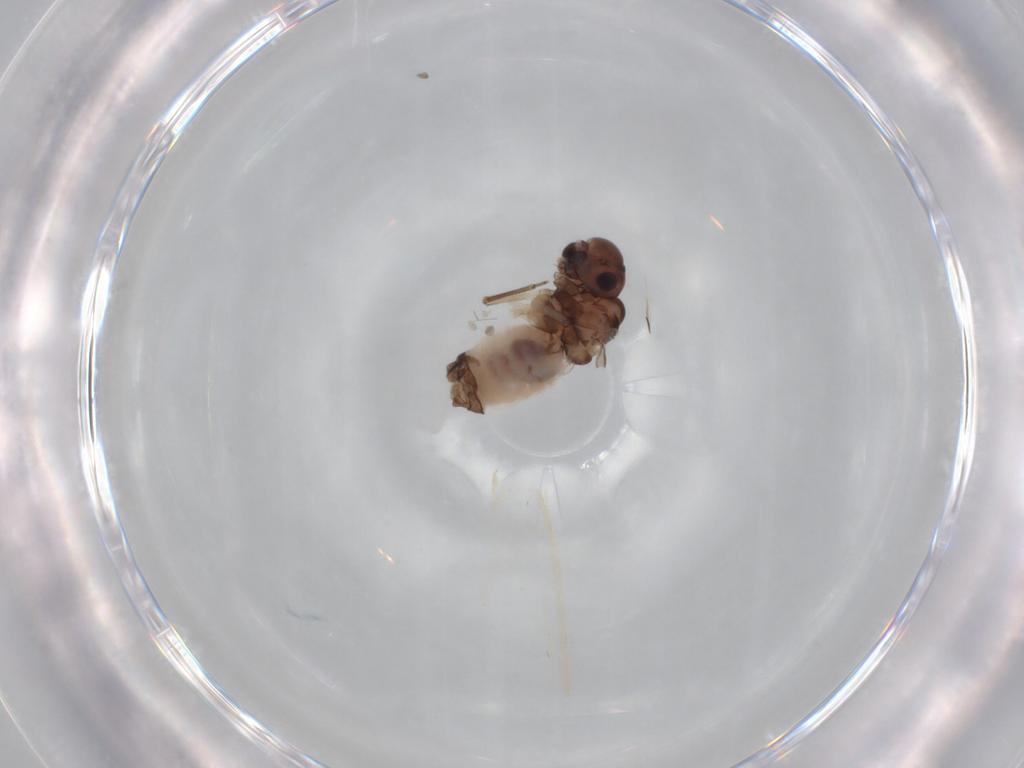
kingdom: Animalia
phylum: Arthropoda
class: Insecta
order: Psocodea
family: Peripsocidae
